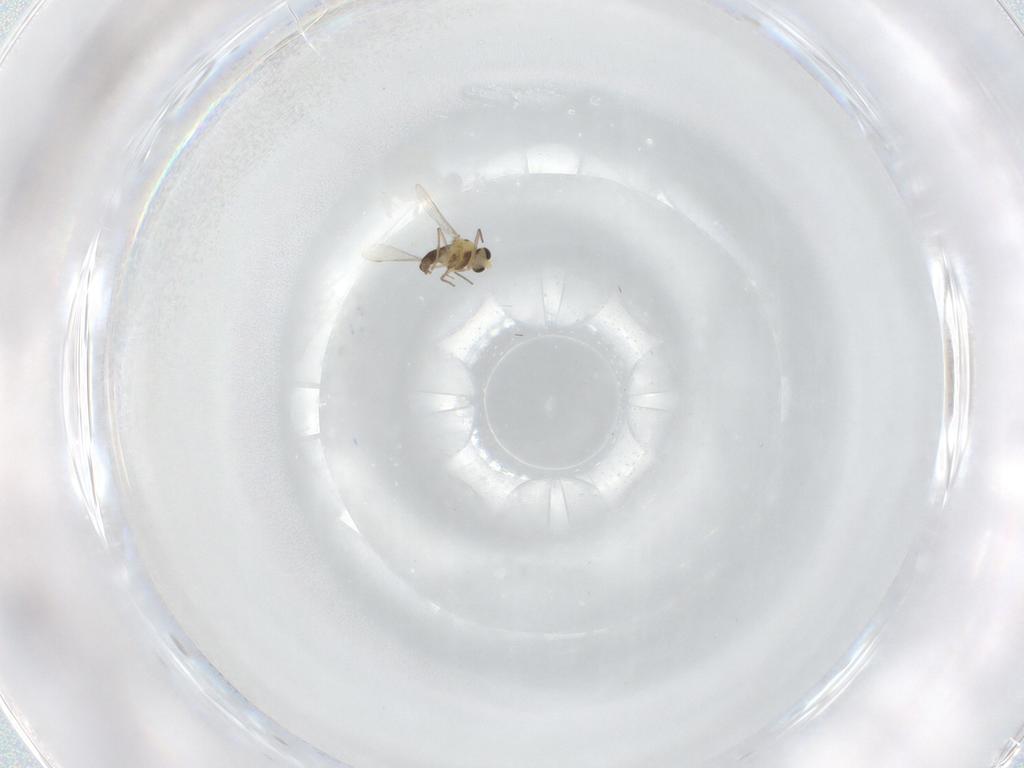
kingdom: Animalia
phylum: Arthropoda
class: Insecta
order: Diptera
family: Chironomidae
